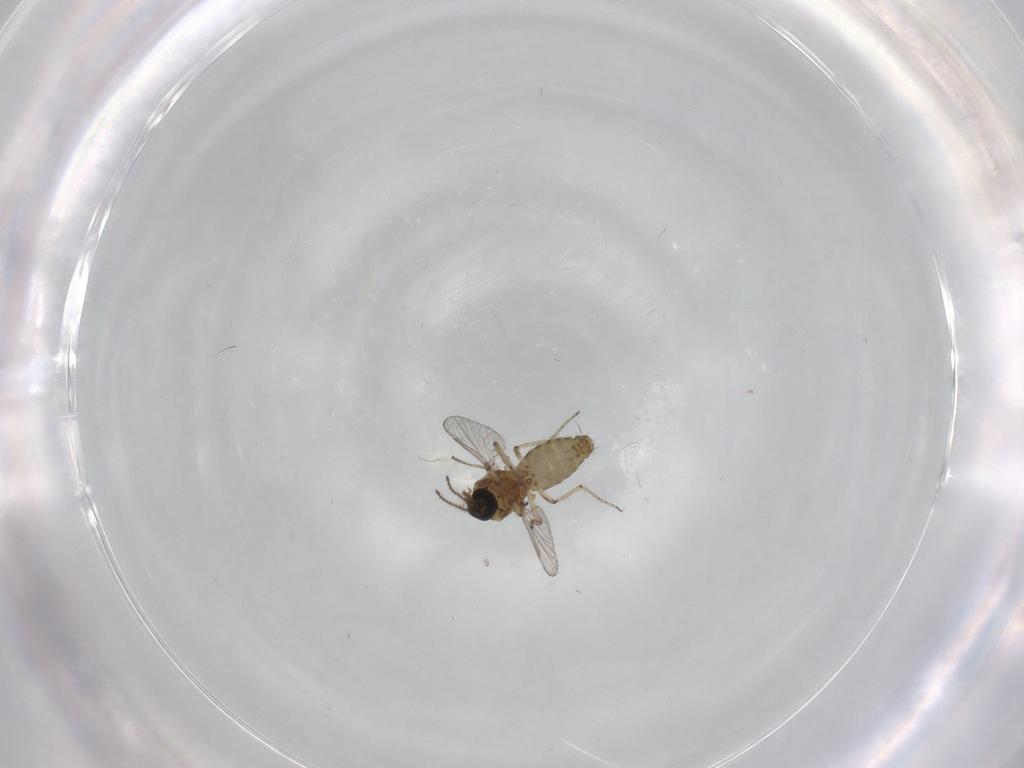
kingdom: Animalia
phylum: Arthropoda
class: Insecta
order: Diptera
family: Ceratopogonidae
